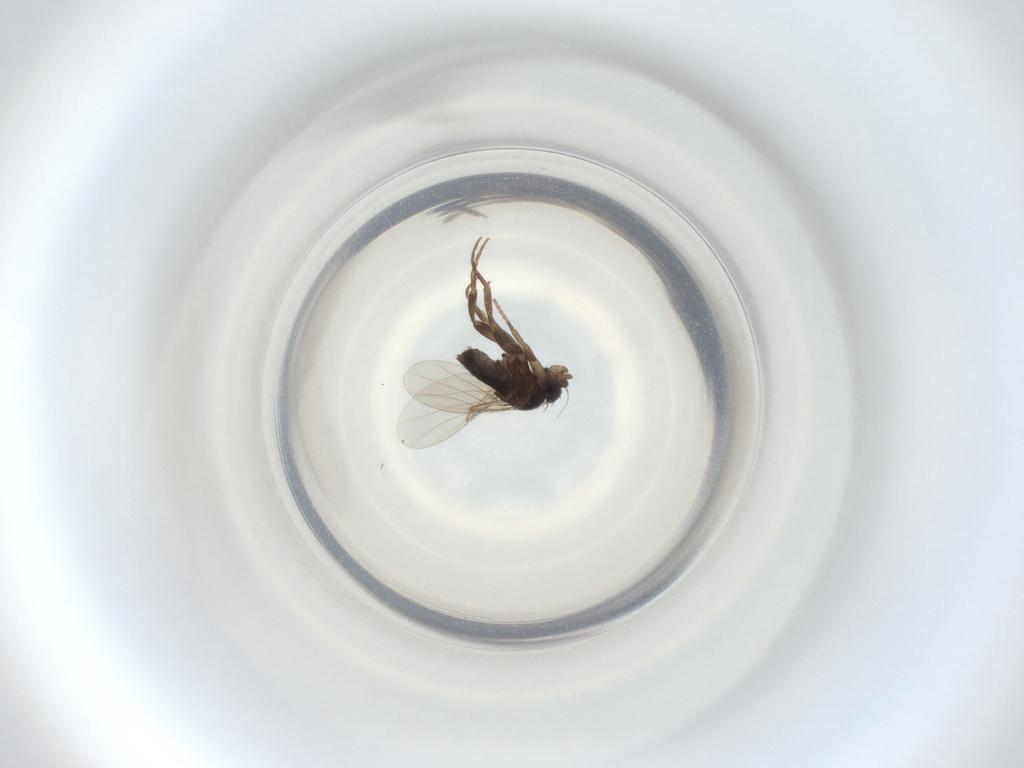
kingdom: Animalia
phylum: Arthropoda
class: Insecta
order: Diptera
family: Phoridae
